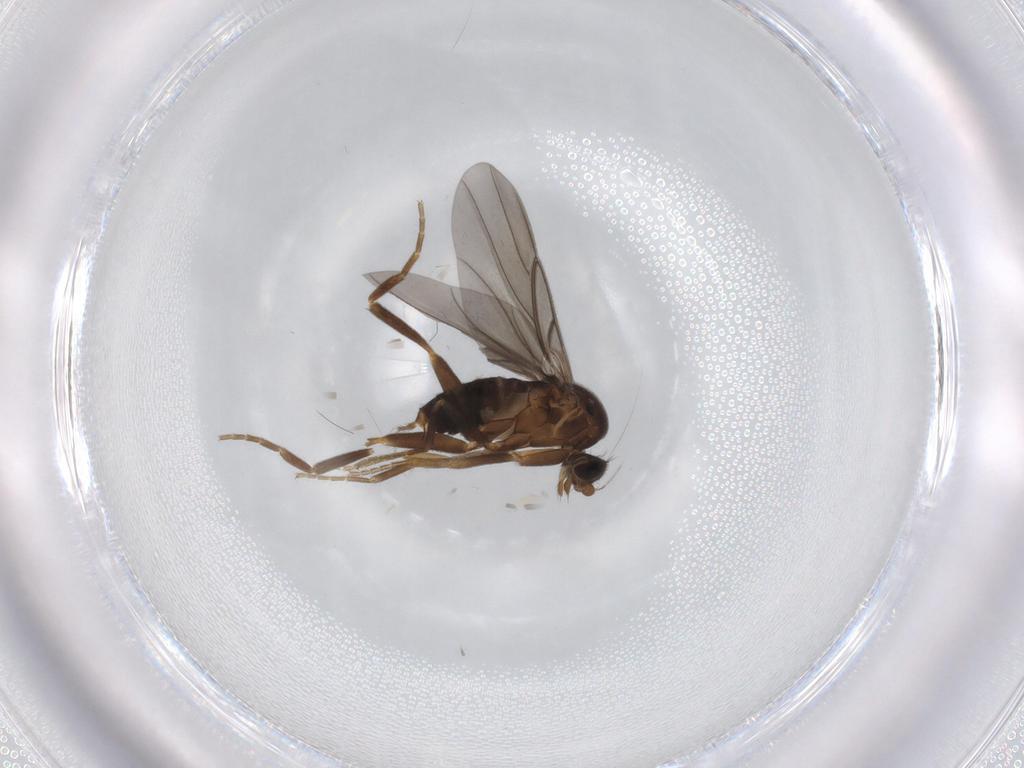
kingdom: Animalia
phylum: Arthropoda
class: Insecta
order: Diptera
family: Phoridae
